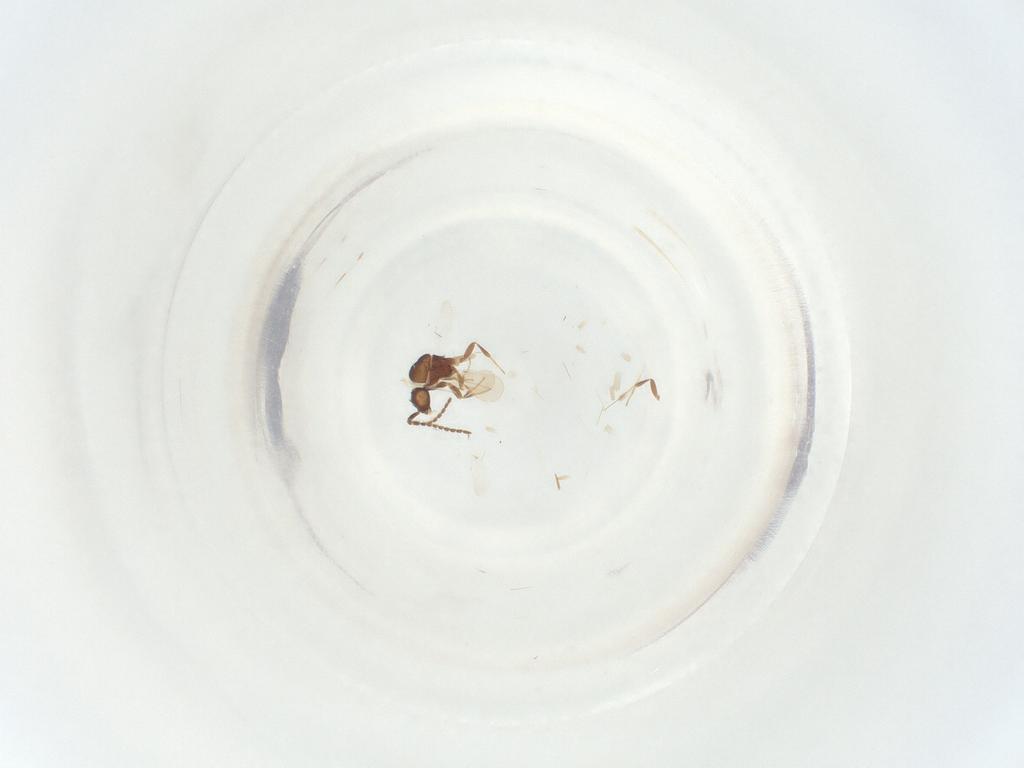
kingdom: Animalia
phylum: Arthropoda
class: Insecta
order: Diptera
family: Sciaridae
